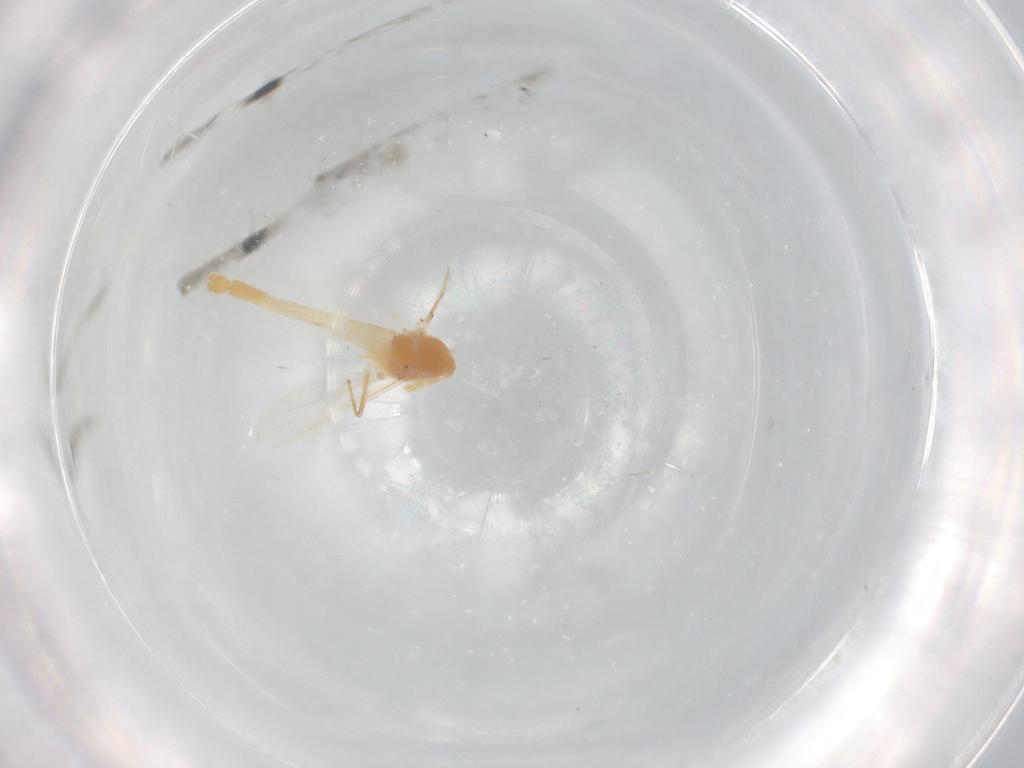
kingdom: Animalia
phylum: Arthropoda
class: Insecta
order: Diptera
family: Chironomidae
